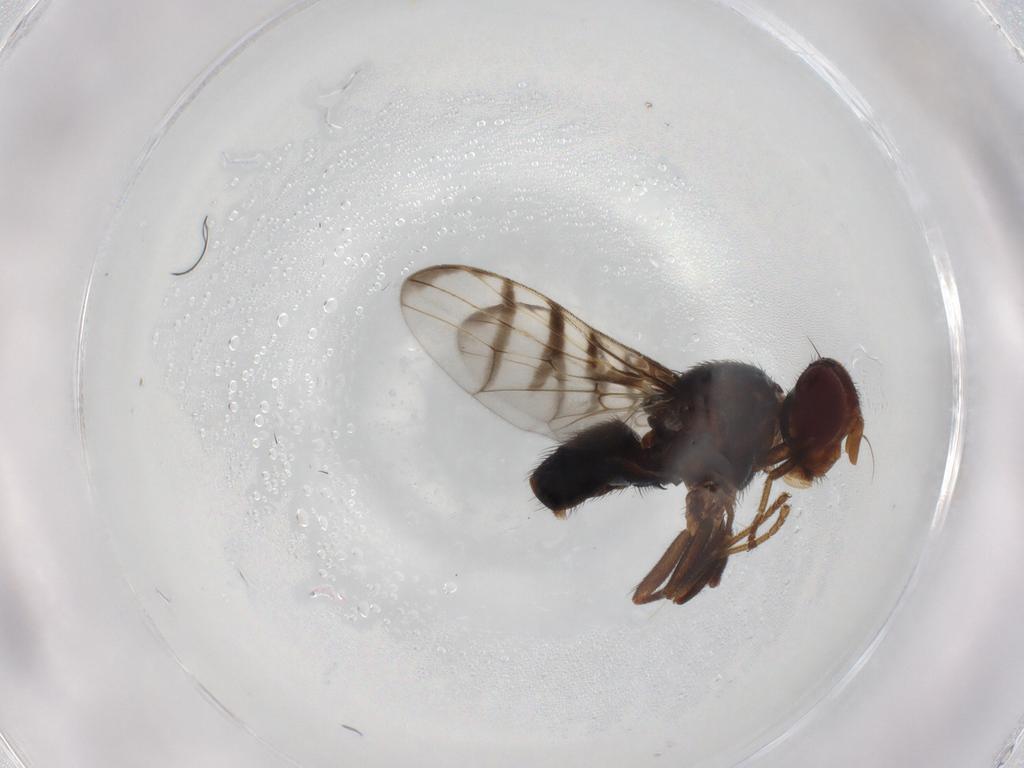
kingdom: Animalia
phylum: Arthropoda
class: Insecta
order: Diptera
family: Platystomatidae
